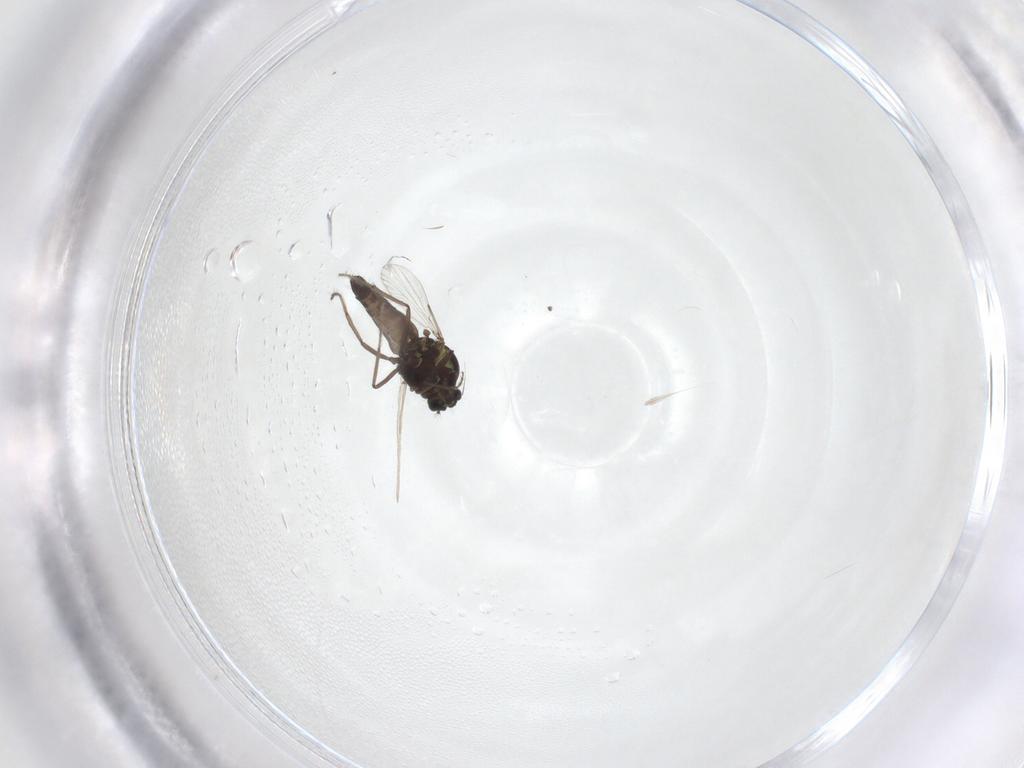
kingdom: Animalia
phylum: Arthropoda
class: Insecta
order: Diptera
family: Ceratopogonidae
